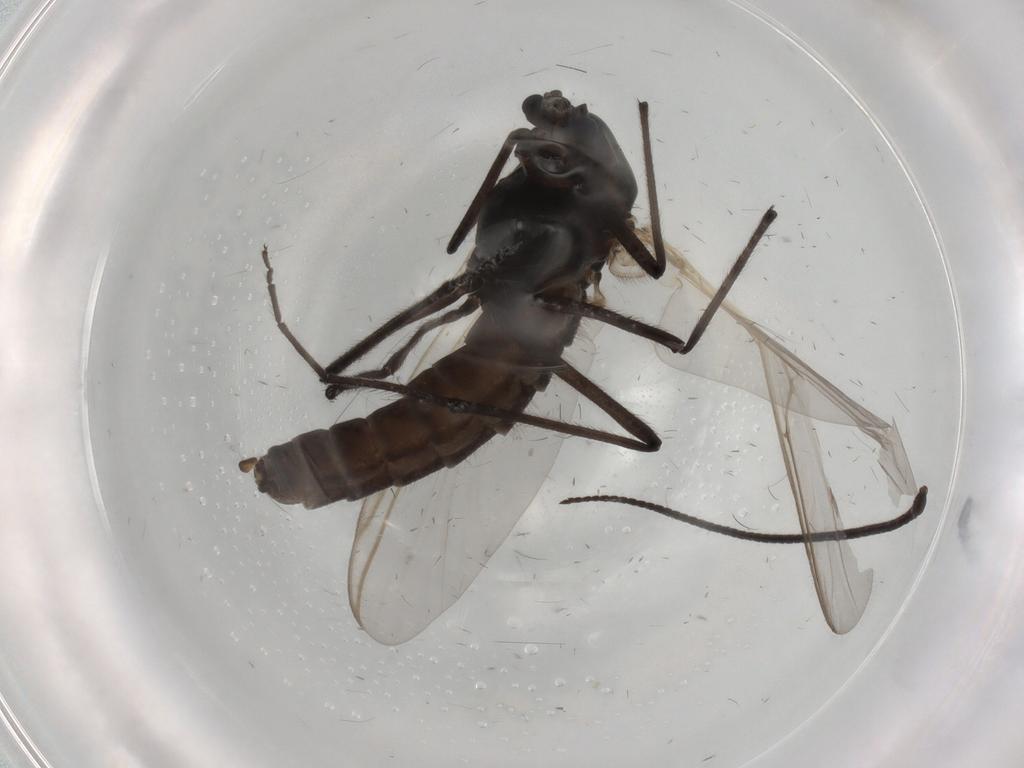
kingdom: Animalia
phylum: Arthropoda
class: Insecta
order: Diptera
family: Chironomidae
